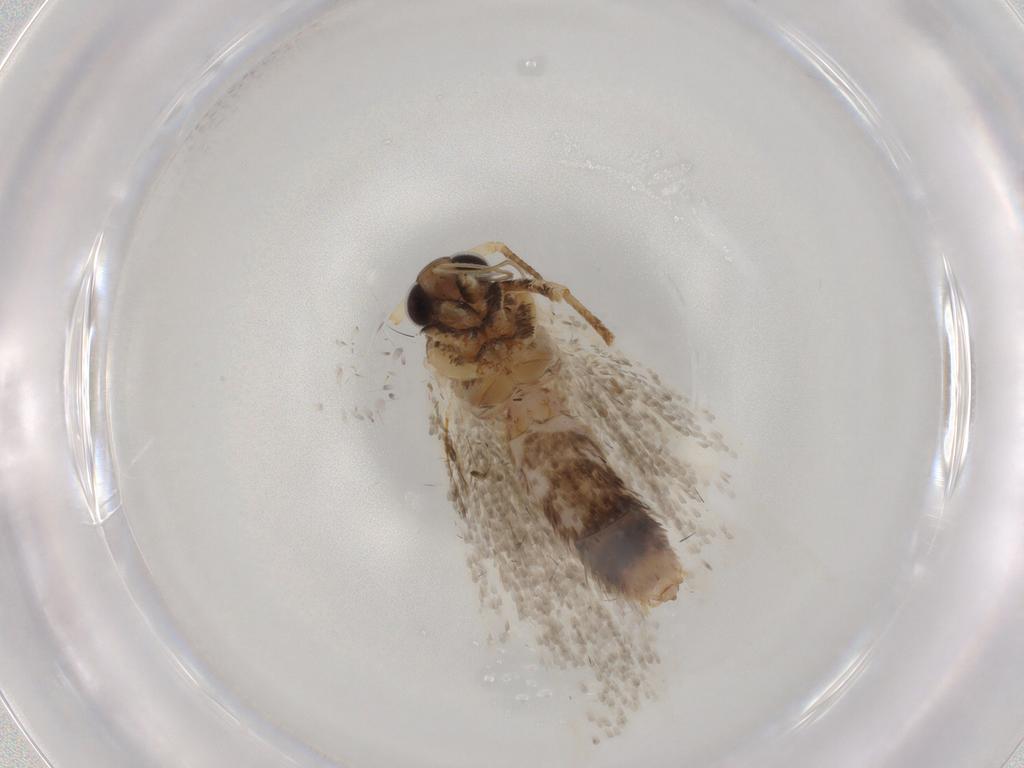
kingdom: Animalia
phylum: Arthropoda
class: Insecta
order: Lepidoptera
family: Blastobasidae
